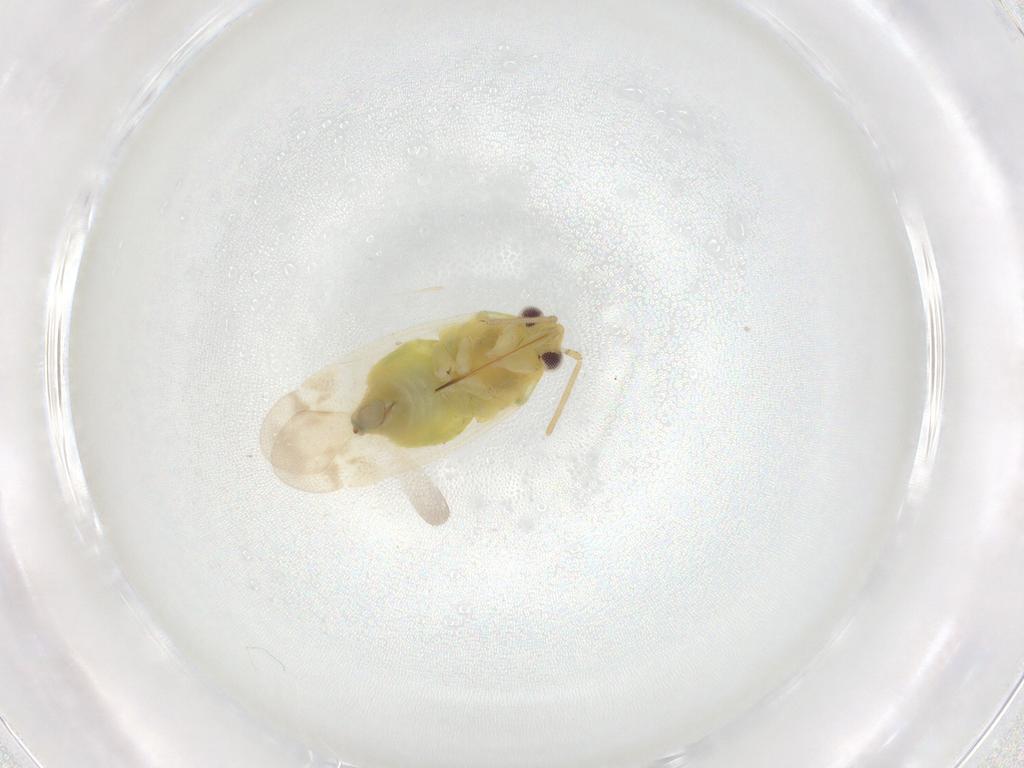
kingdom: Animalia
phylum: Arthropoda
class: Insecta
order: Hemiptera
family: Miridae
